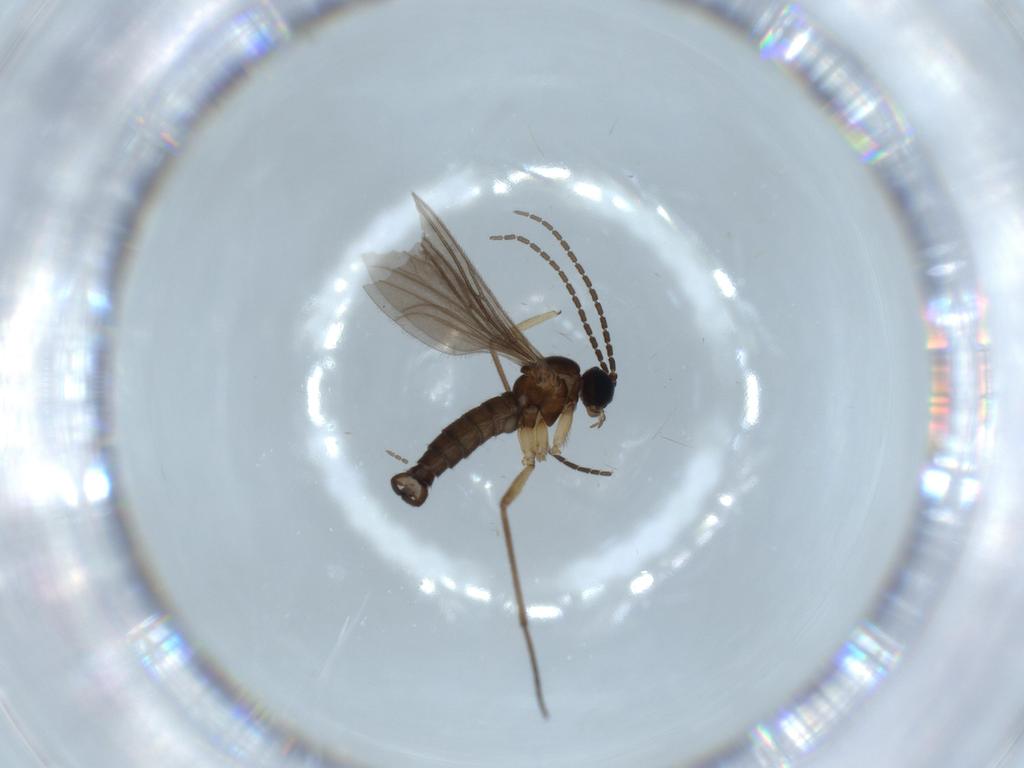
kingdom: Animalia
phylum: Arthropoda
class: Insecta
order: Diptera
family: Sciaridae
